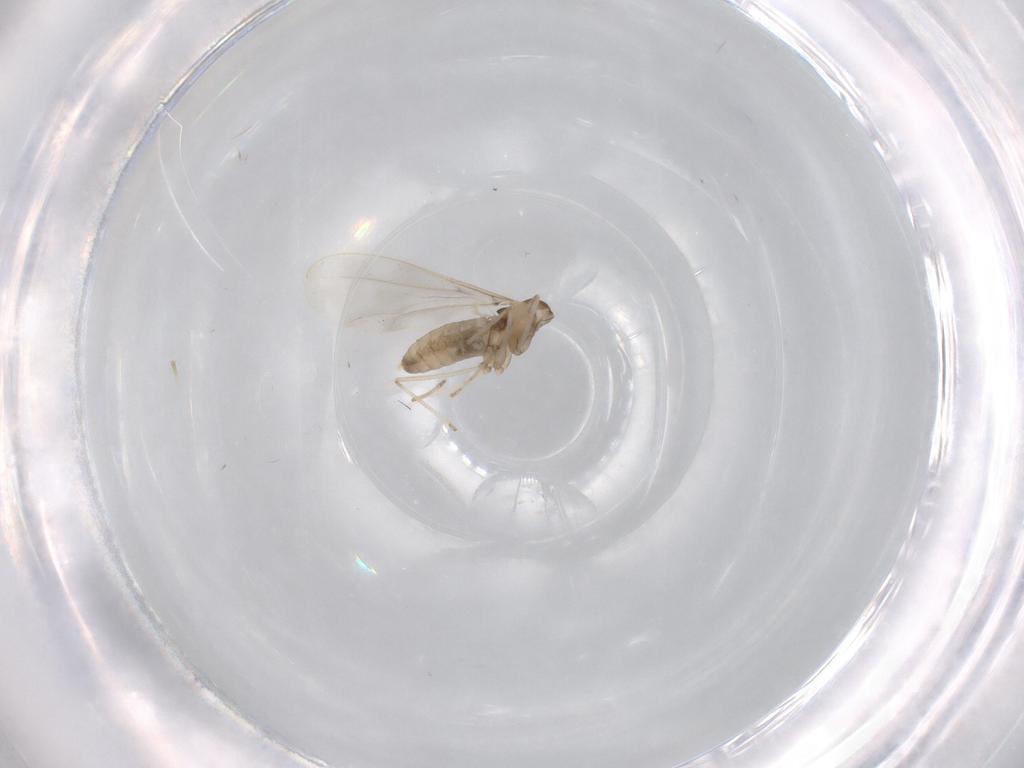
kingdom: Animalia
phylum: Arthropoda
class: Insecta
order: Diptera
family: Cecidomyiidae
